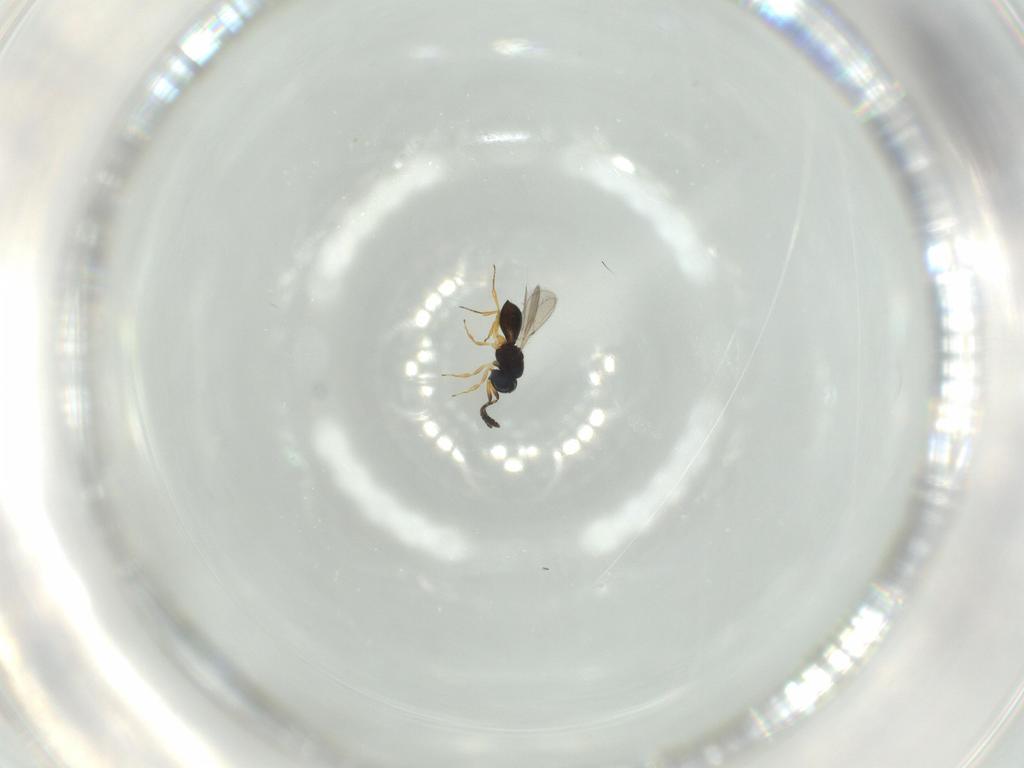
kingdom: Animalia
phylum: Arthropoda
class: Insecta
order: Hymenoptera
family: Scelionidae
